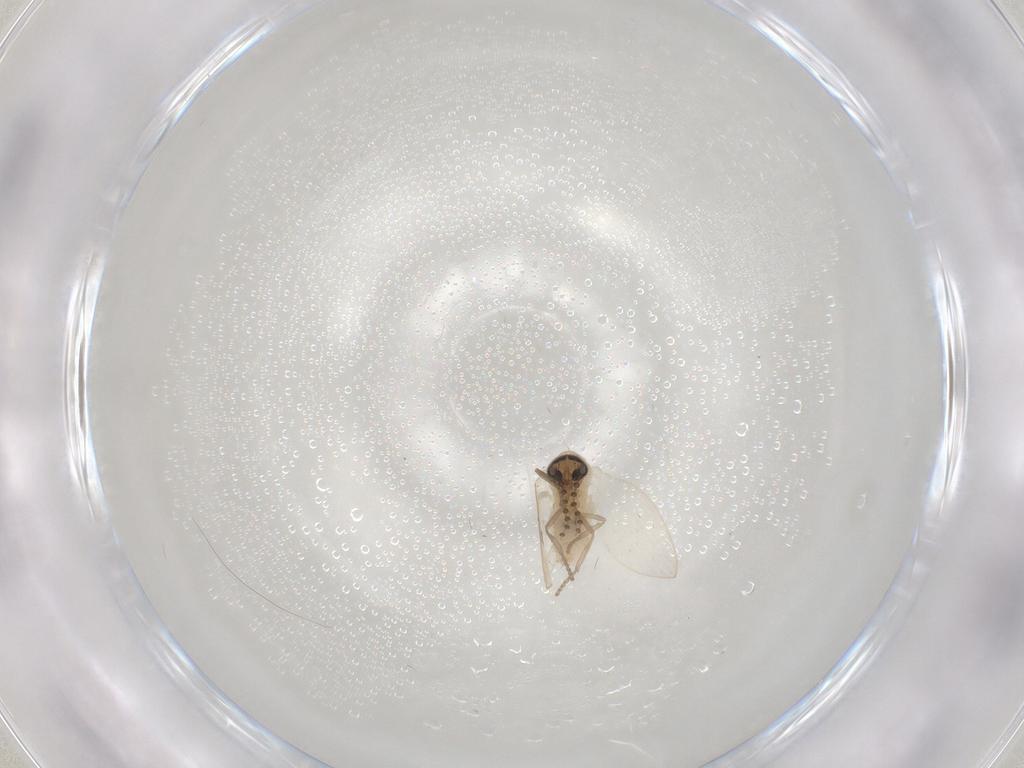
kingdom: Animalia
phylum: Arthropoda
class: Insecta
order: Diptera
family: Psychodidae
